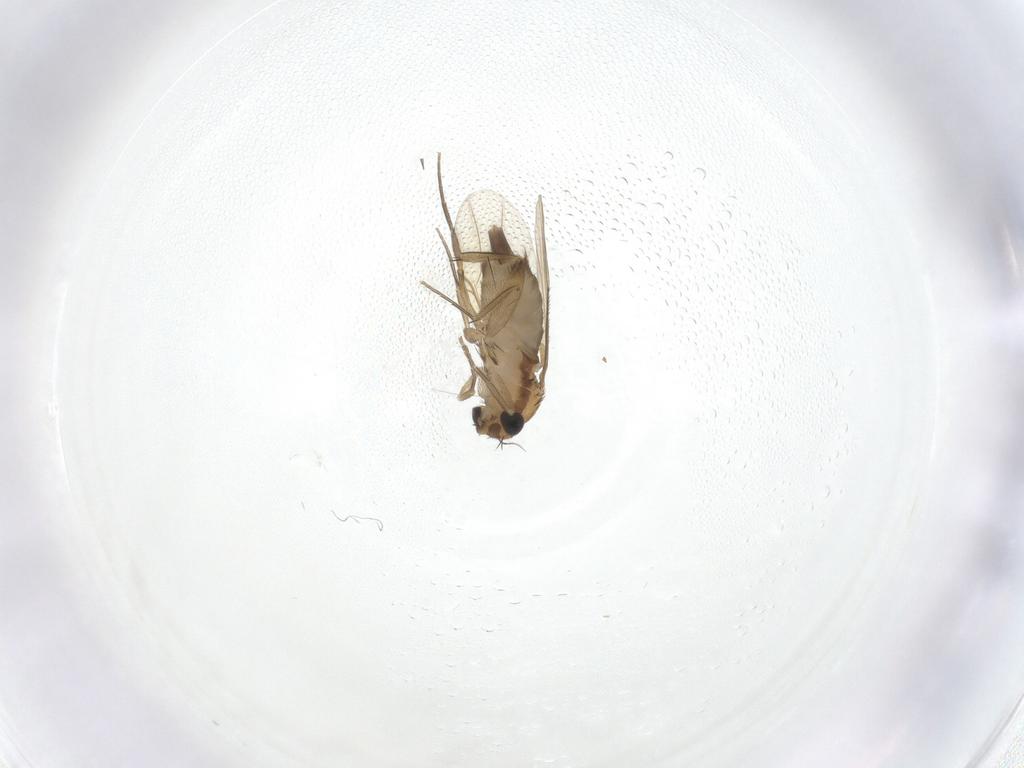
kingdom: Animalia
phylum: Arthropoda
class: Insecta
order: Diptera
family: Phoridae
